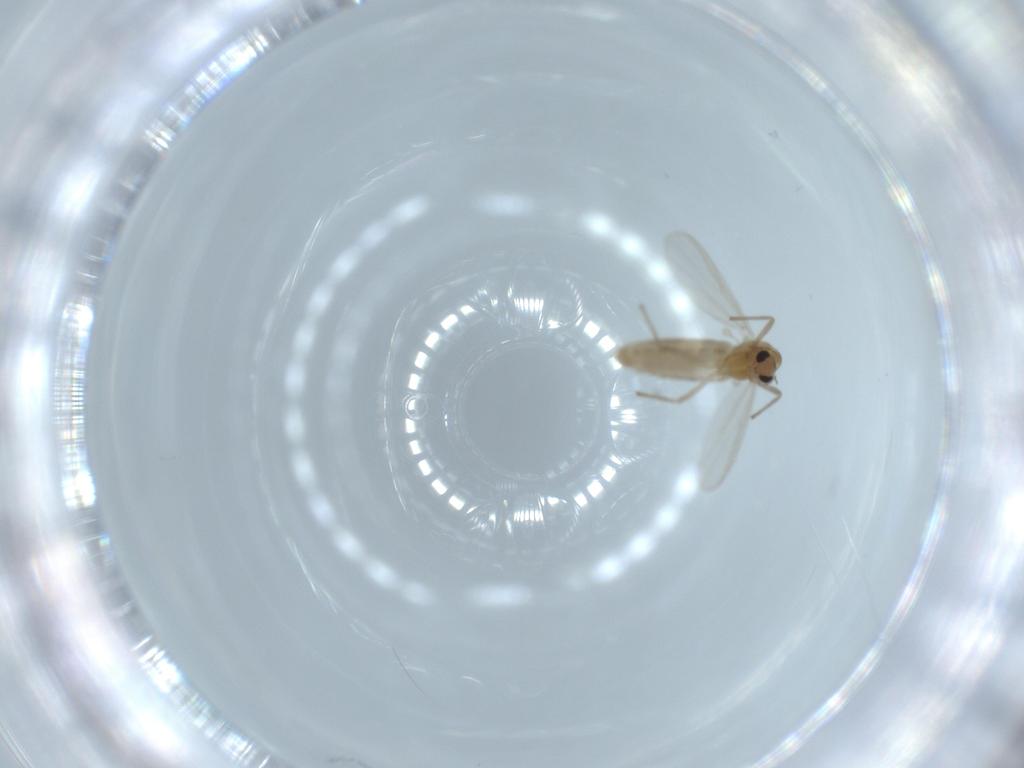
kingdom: Animalia
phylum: Arthropoda
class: Insecta
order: Diptera
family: Chironomidae
